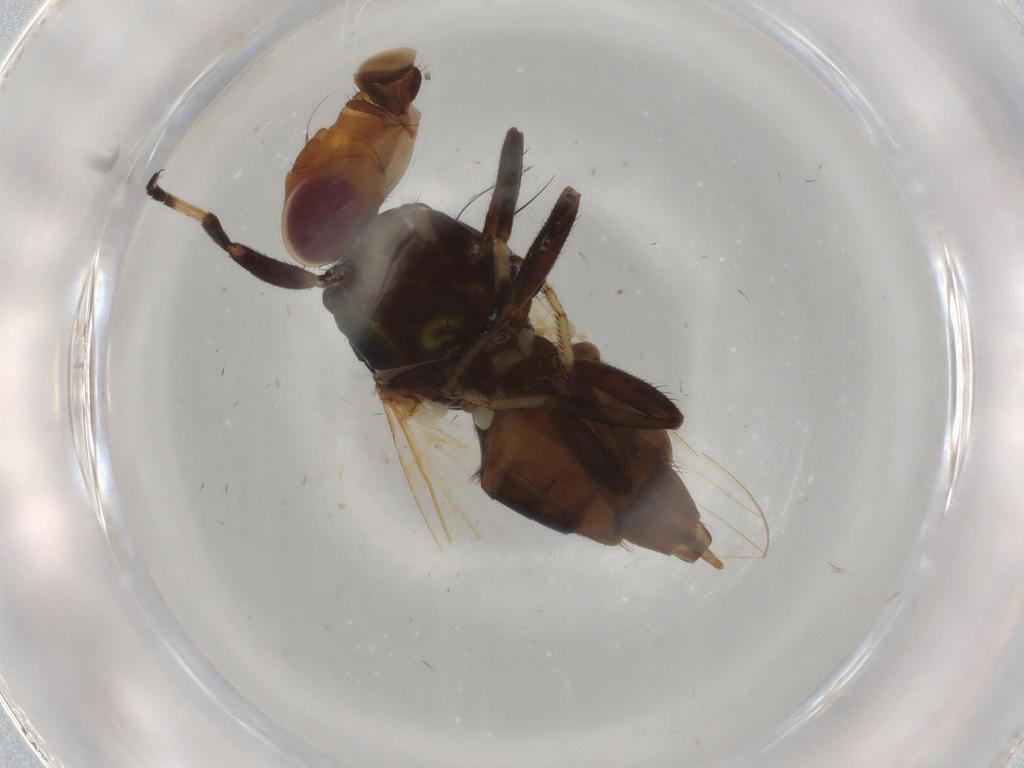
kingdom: Animalia
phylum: Arthropoda
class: Insecta
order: Diptera
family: Ulidiidae
